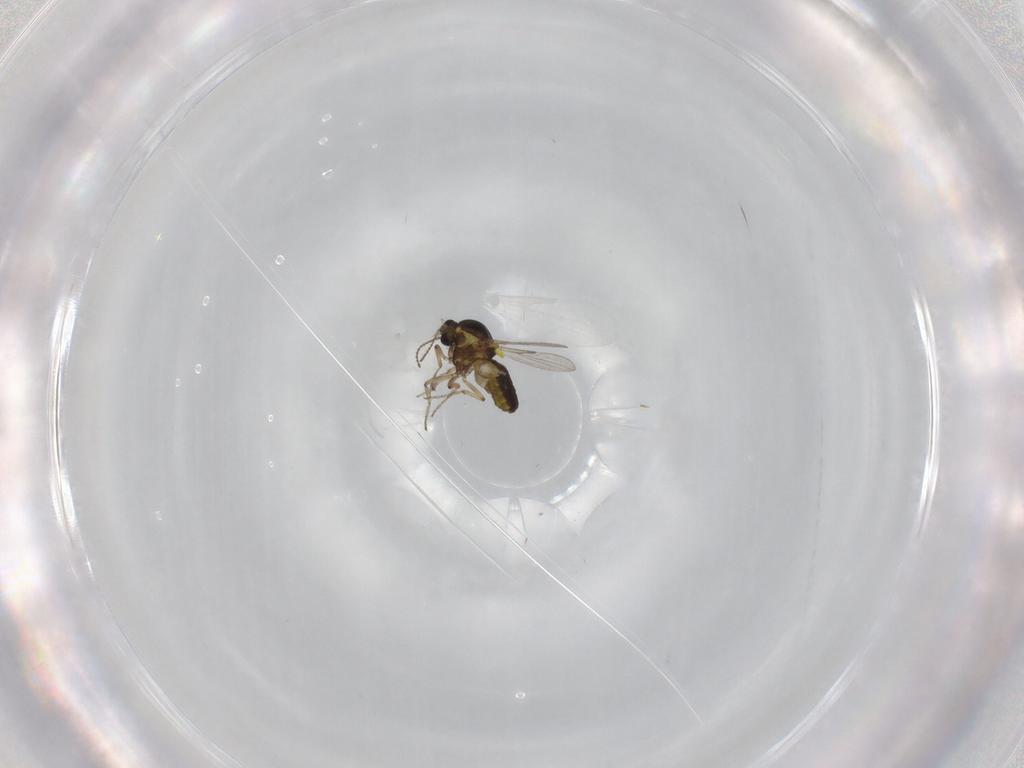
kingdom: Animalia
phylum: Arthropoda
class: Insecta
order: Diptera
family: Ceratopogonidae
